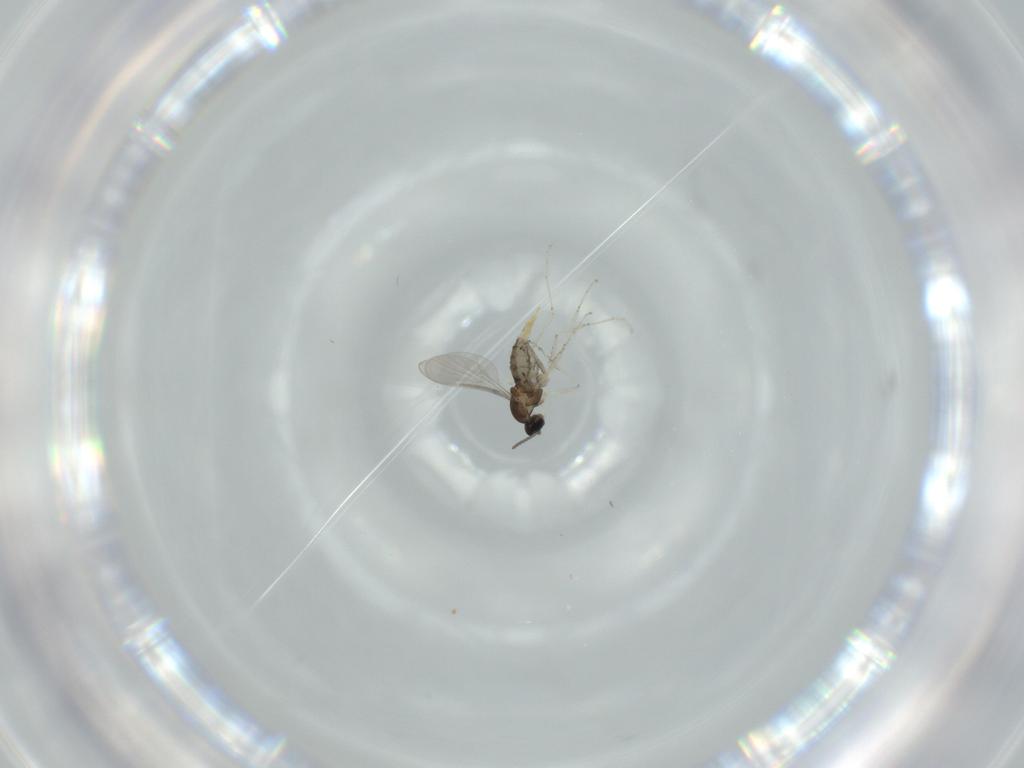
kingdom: Animalia
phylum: Arthropoda
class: Insecta
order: Diptera
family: Cecidomyiidae
